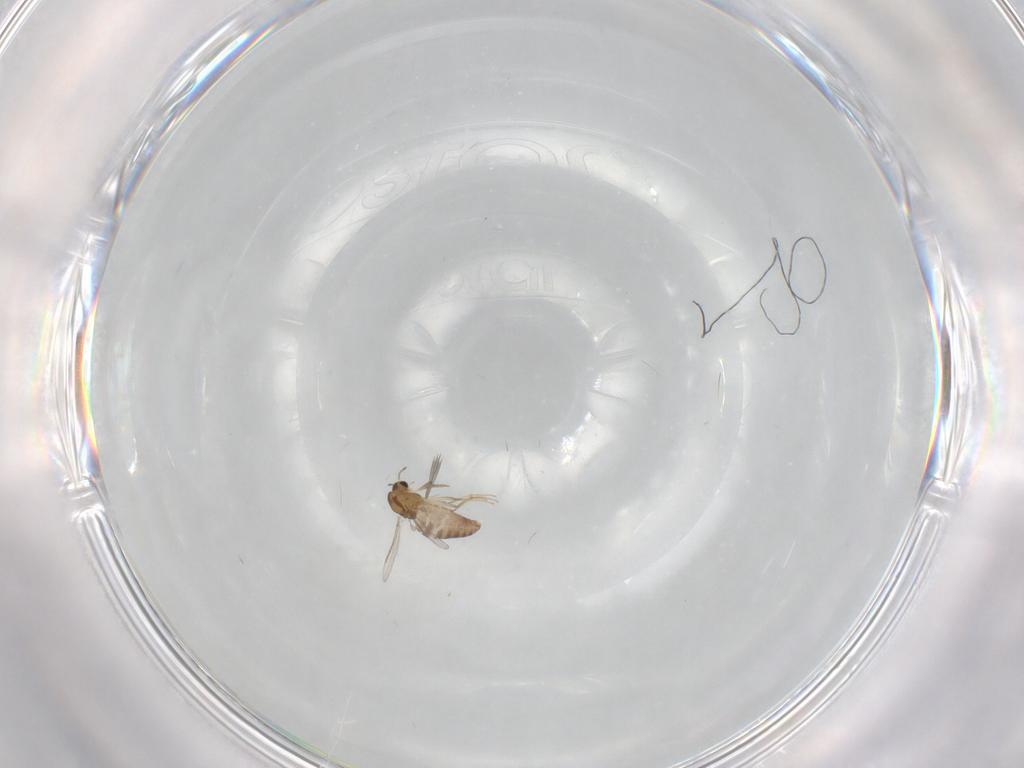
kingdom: Animalia
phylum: Arthropoda
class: Insecta
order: Diptera
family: Chironomidae
